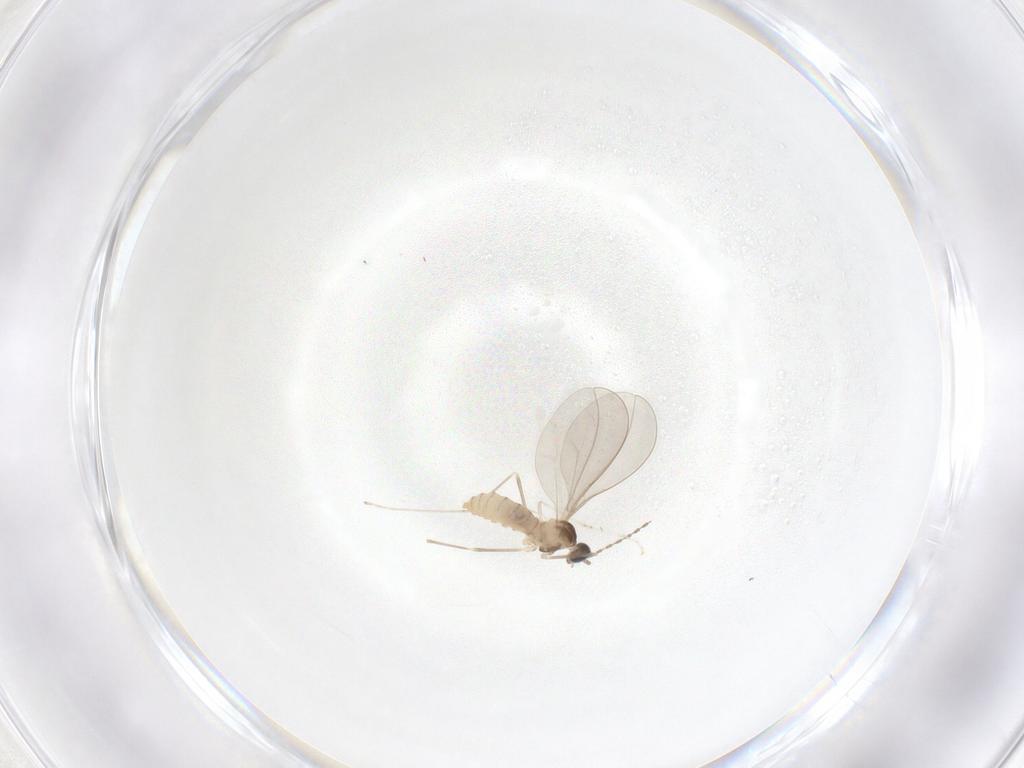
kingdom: Animalia
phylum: Arthropoda
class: Insecta
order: Diptera
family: Cecidomyiidae
